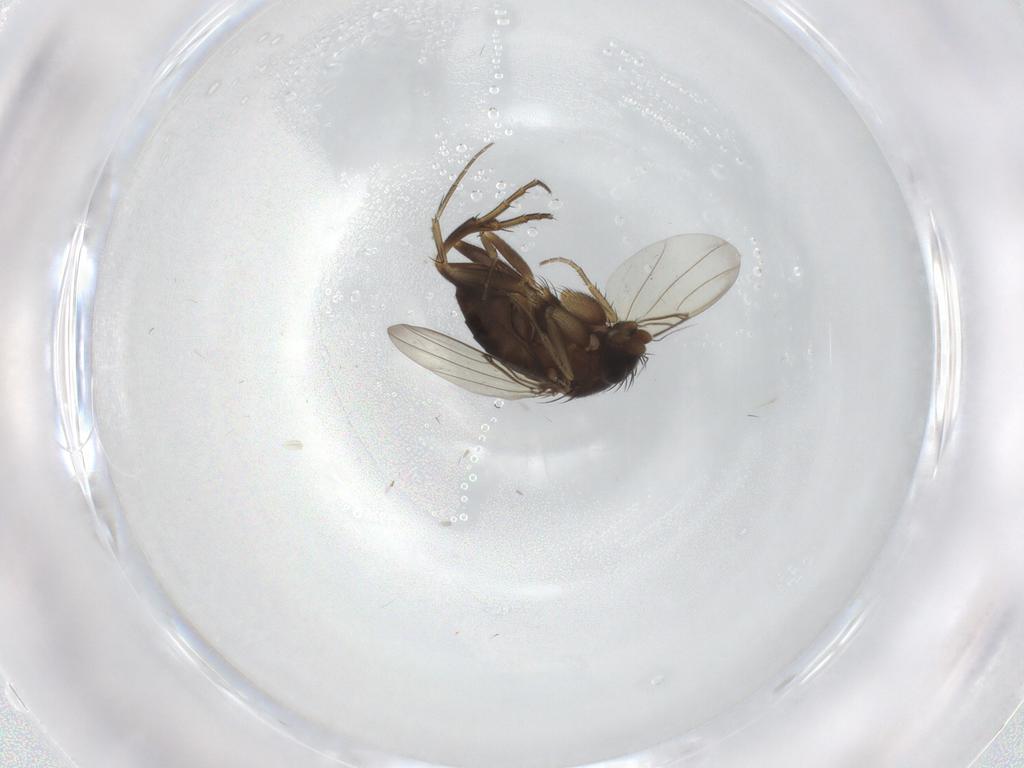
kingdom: Animalia
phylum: Arthropoda
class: Insecta
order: Diptera
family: Phoridae
